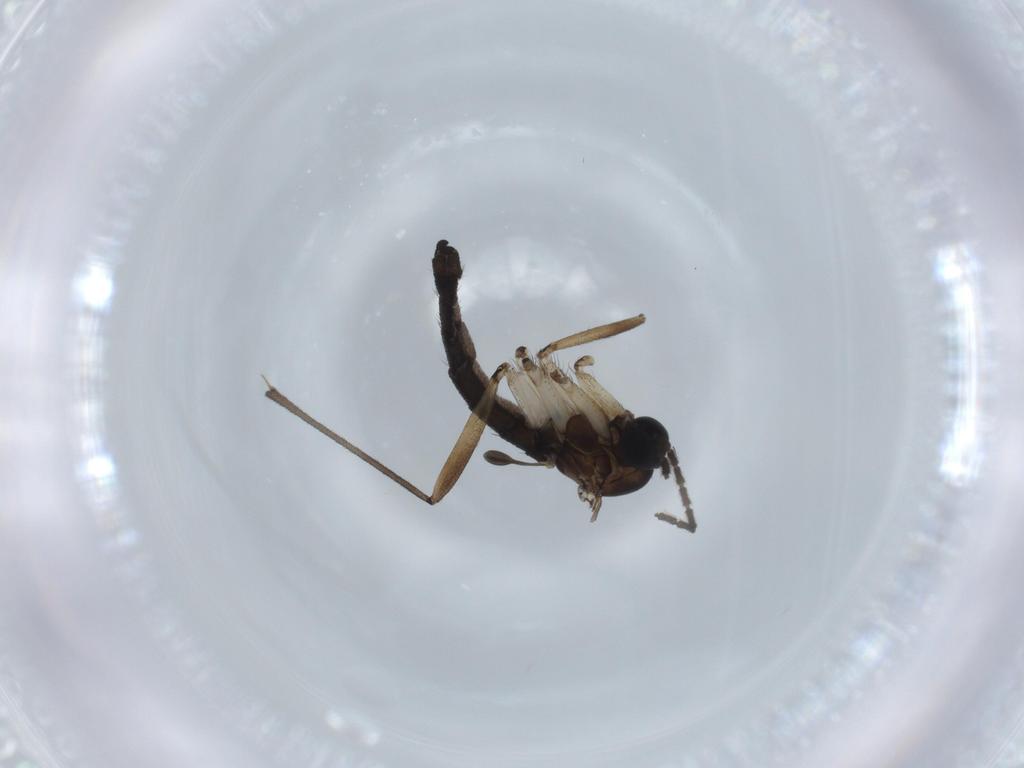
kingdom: Animalia
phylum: Arthropoda
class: Insecta
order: Diptera
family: Sciaridae
